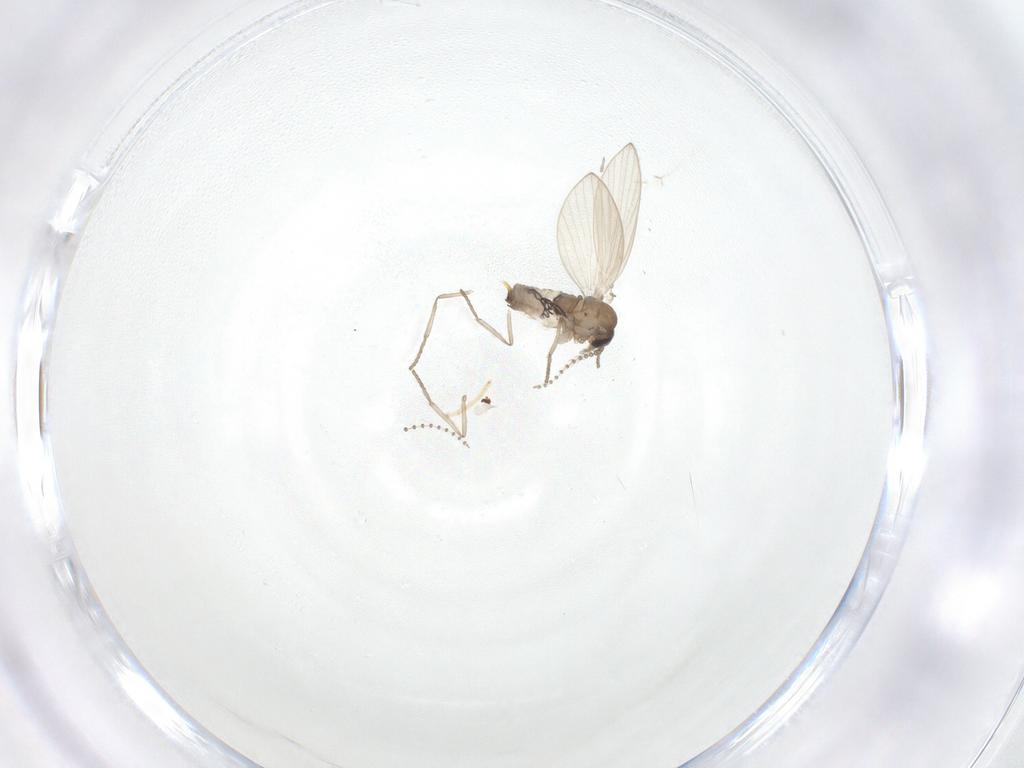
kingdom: Animalia
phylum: Arthropoda
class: Insecta
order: Diptera
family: Psychodidae
